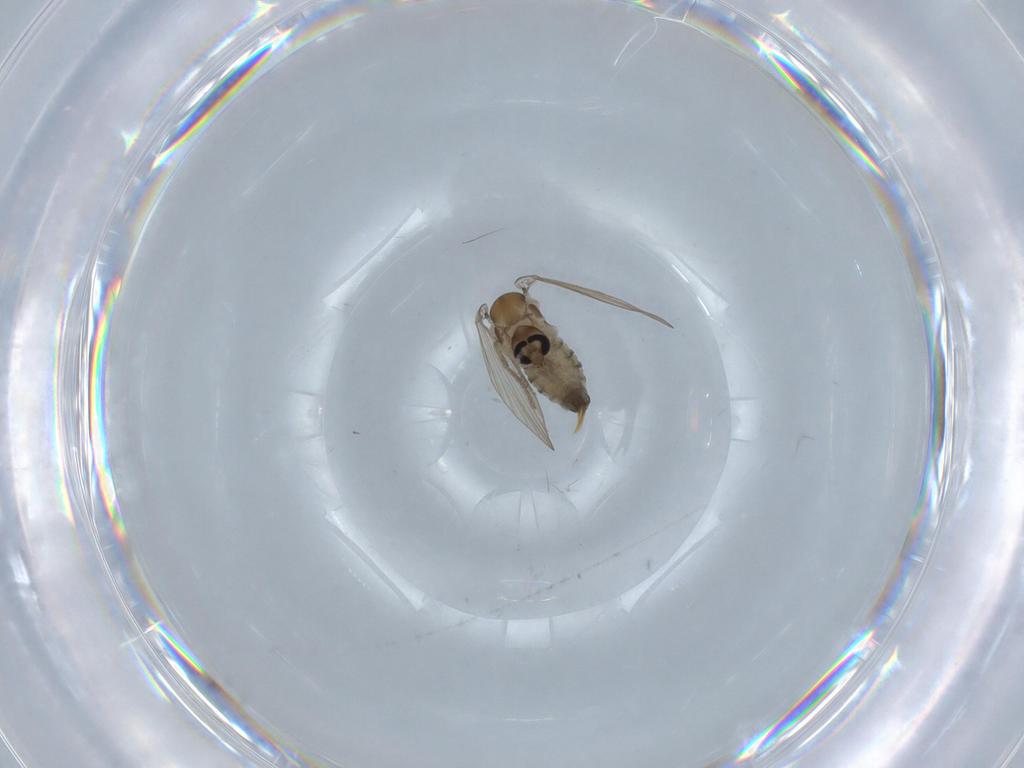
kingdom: Animalia
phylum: Arthropoda
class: Insecta
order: Diptera
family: Psychodidae
